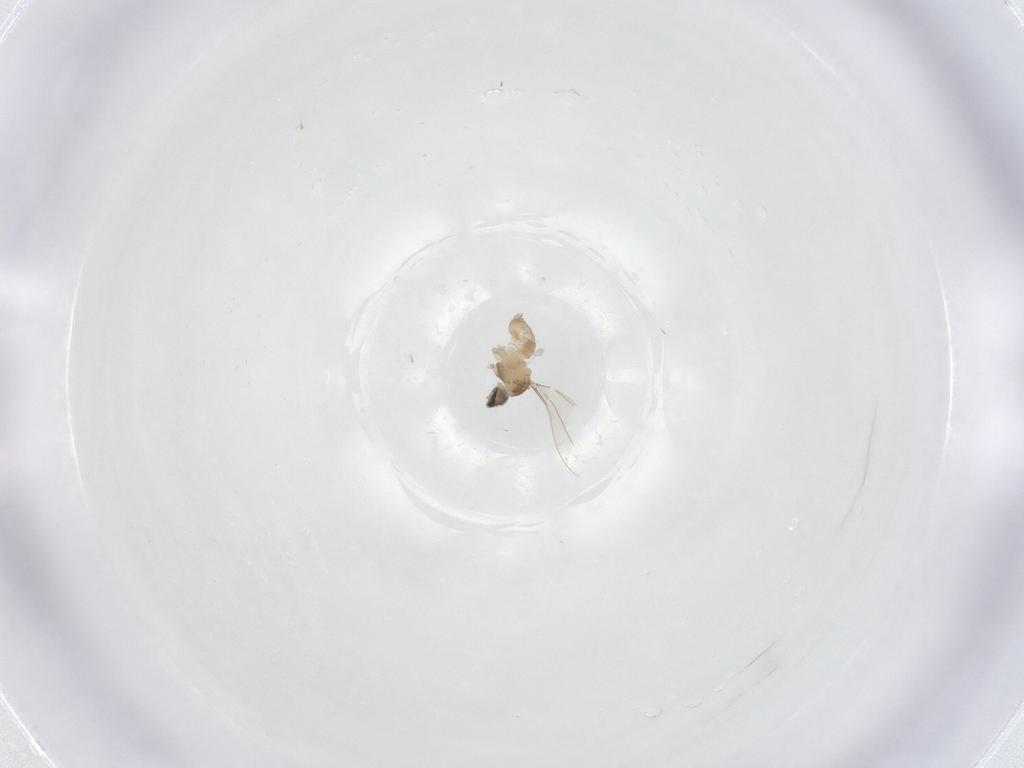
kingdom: Animalia
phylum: Arthropoda
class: Insecta
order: Diptera
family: Cecidomyiidae
